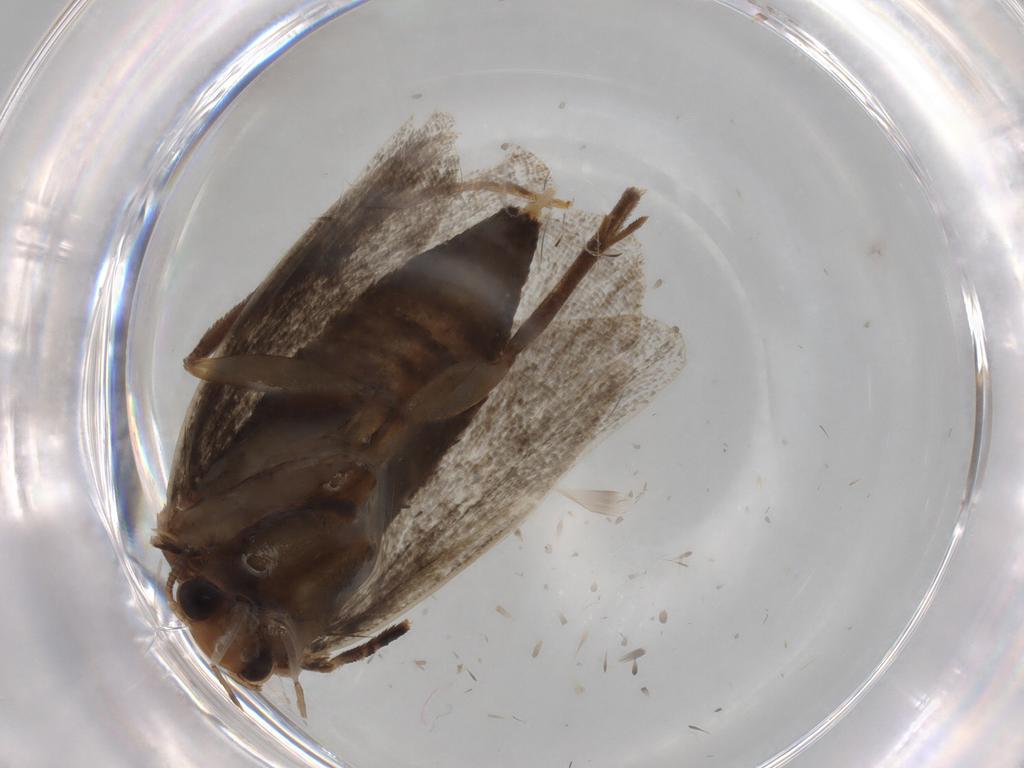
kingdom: Animalia
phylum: Arthropoda
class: Insecta
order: Lepidoptera
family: Tineidae
